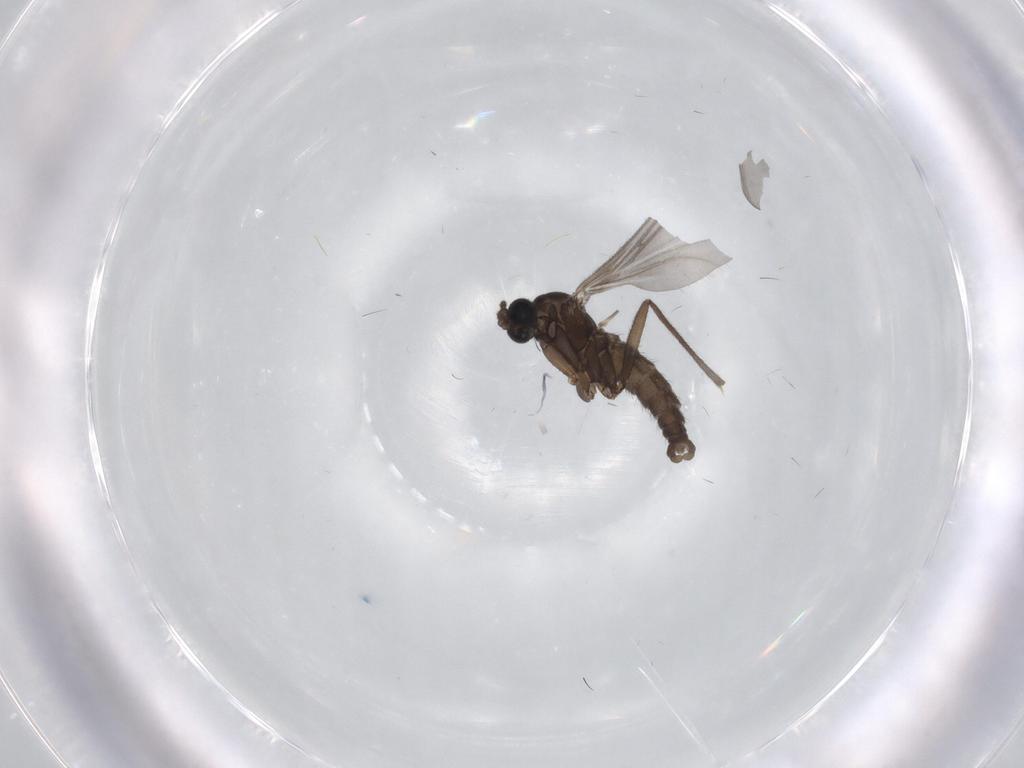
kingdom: Animalia
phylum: Arthropoda
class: Insecta
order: Diptera
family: Sciaridae
